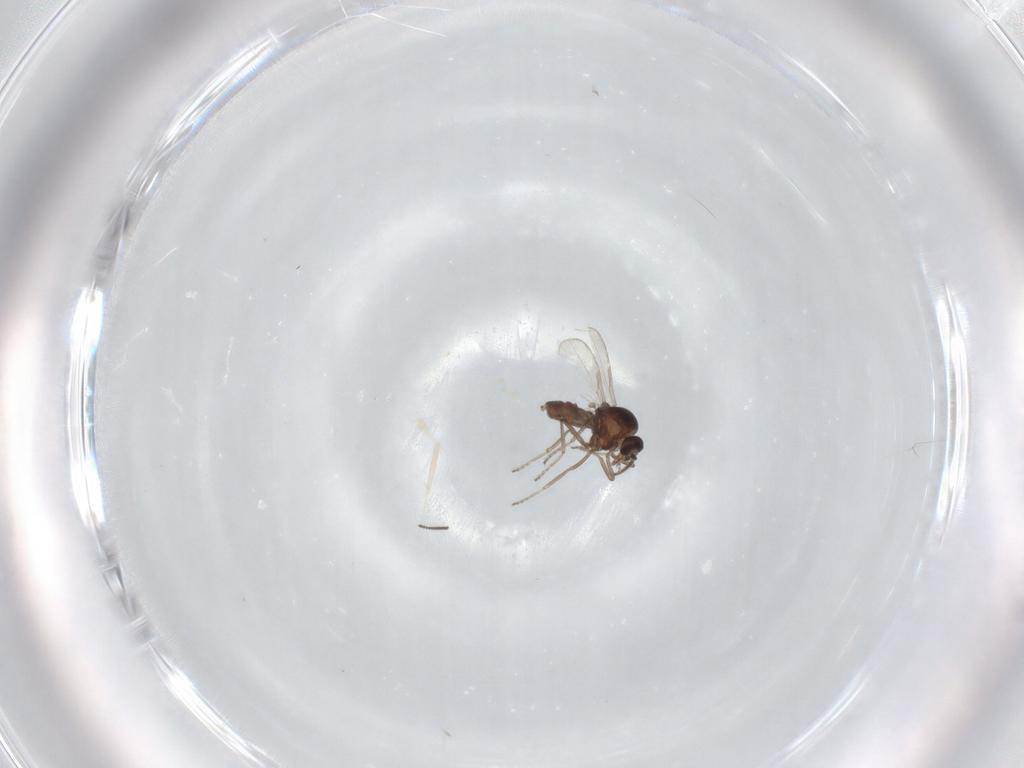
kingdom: Animalia
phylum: Arthropoda
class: Insecta
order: Diptera
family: Ceratopogonidae
